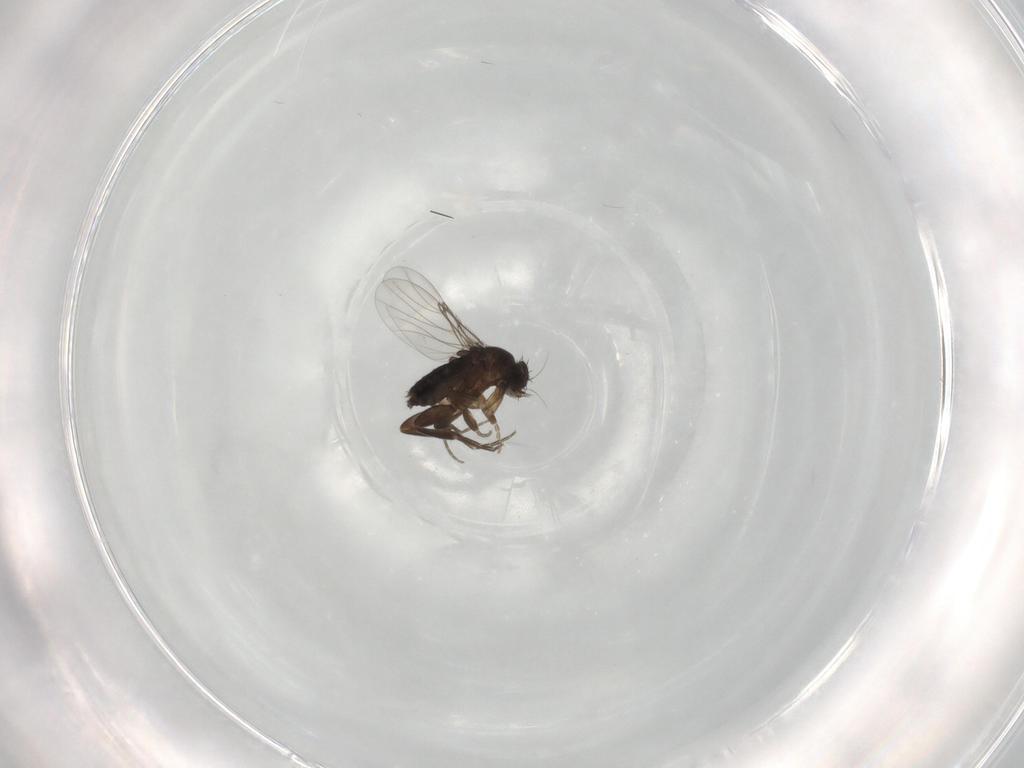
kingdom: Animalia
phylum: Arthropoda
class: Insecta
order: Diptera
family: Phoridae
